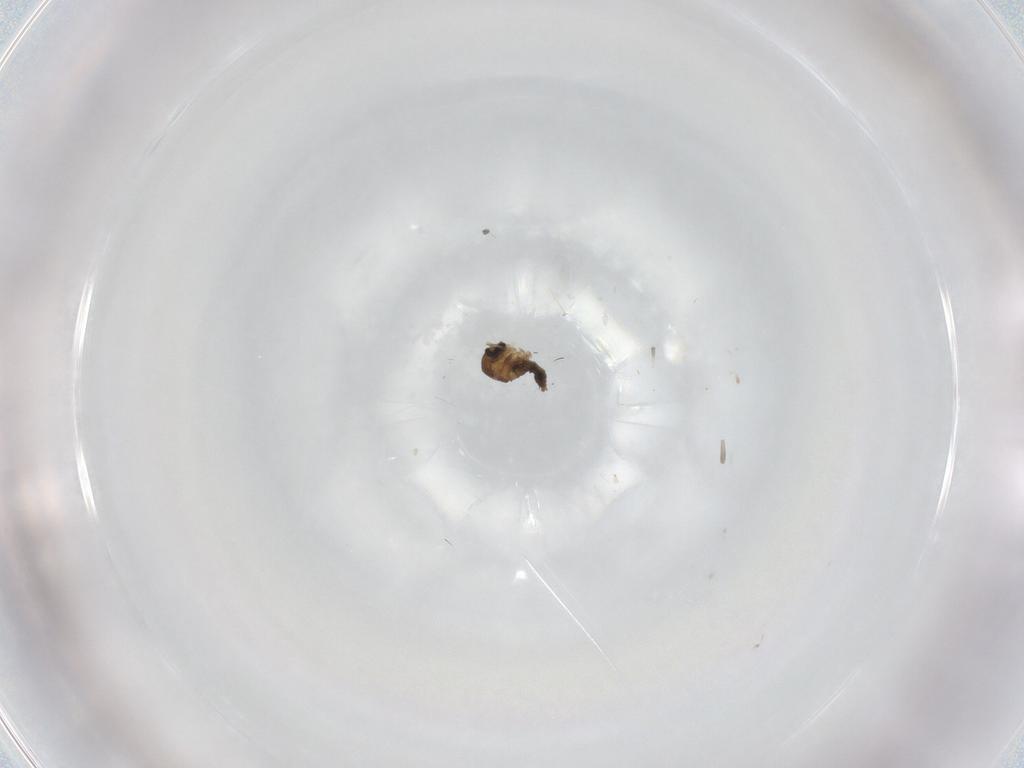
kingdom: Animalia
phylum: Arthropoda
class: Insecta
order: Diptera
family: Cecidomyiidae
